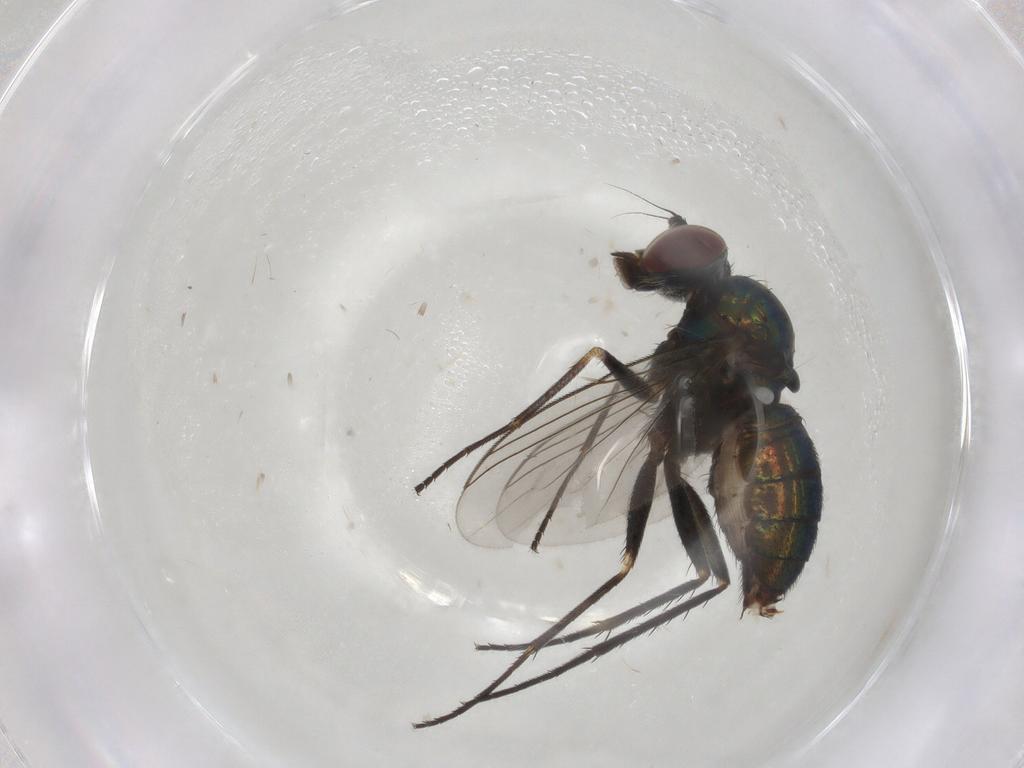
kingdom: Animalia
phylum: Arthropoda
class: Insecta
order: Diptera
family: Dolichopodidae
